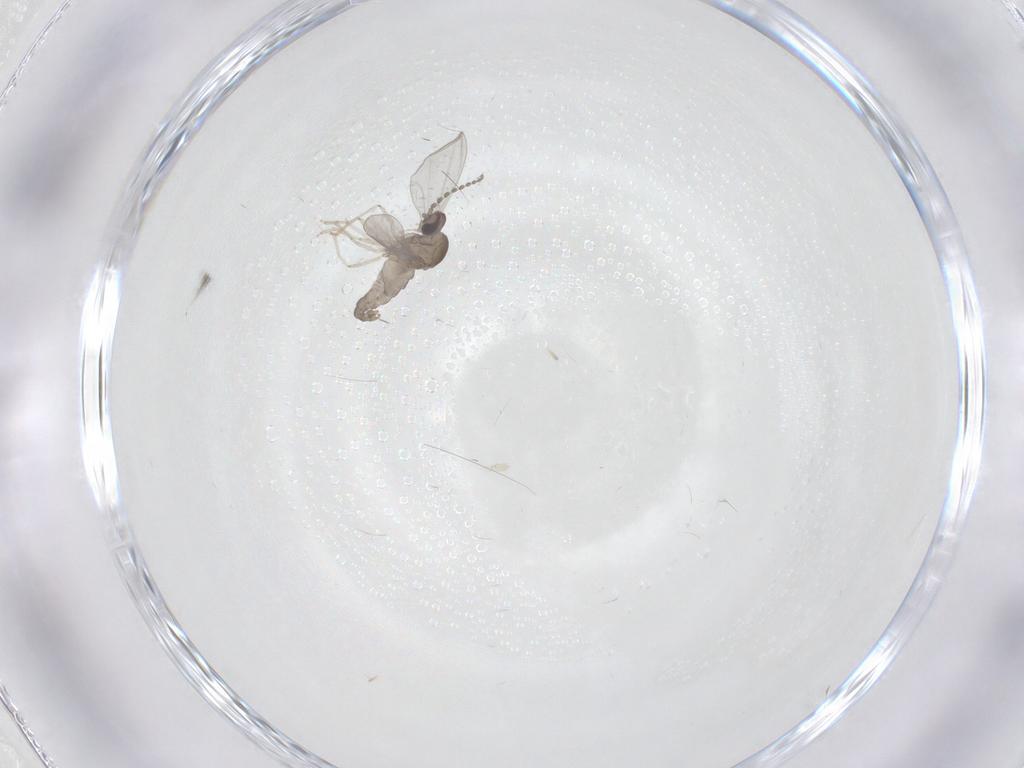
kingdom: Animalia
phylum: Arthropoda
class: Insecta
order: Diptera
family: Cecidomyiidae
